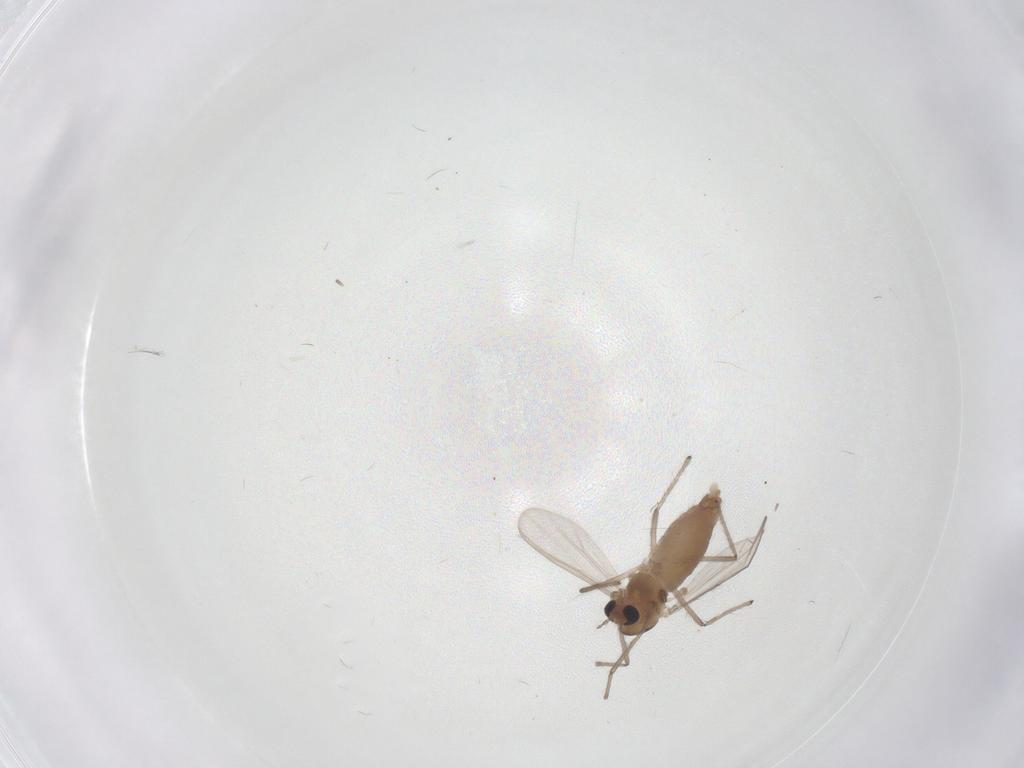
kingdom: Animalia
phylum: Arthropoda
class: Insecta
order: Diptera
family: Chironomidae
